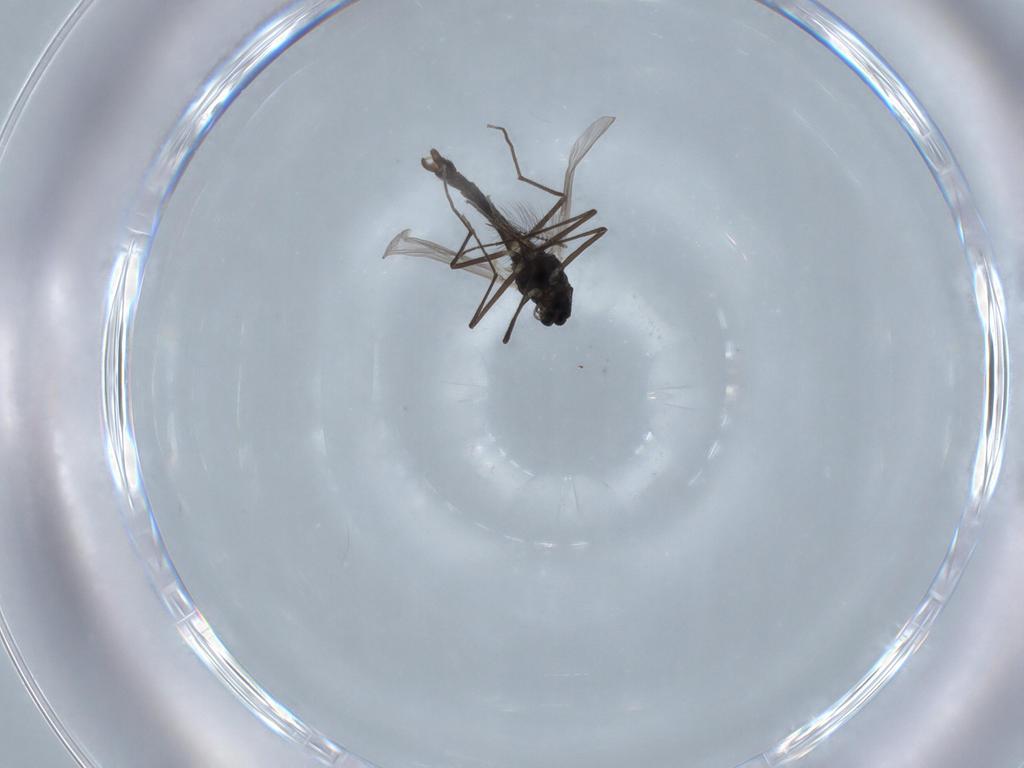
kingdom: Animalia
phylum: Arthropoda
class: Insecta
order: Diptera
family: Chironomidae
